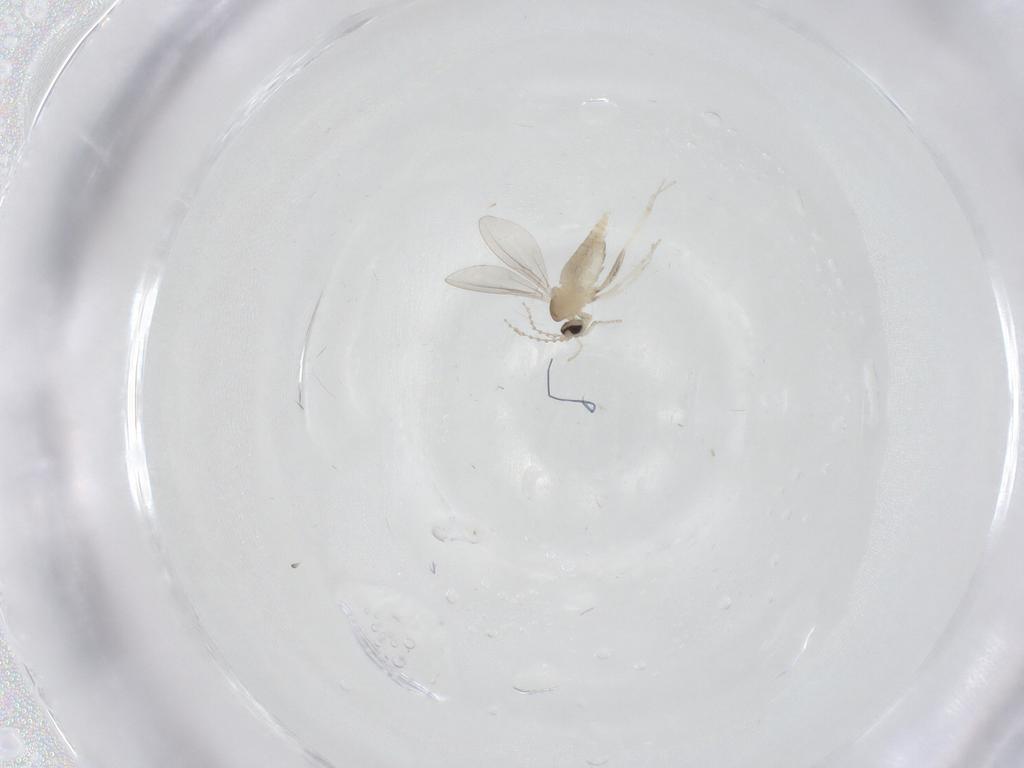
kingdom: Animalia
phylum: Arthropoda
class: Insecta
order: Diptera
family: Cecidomyiidae
